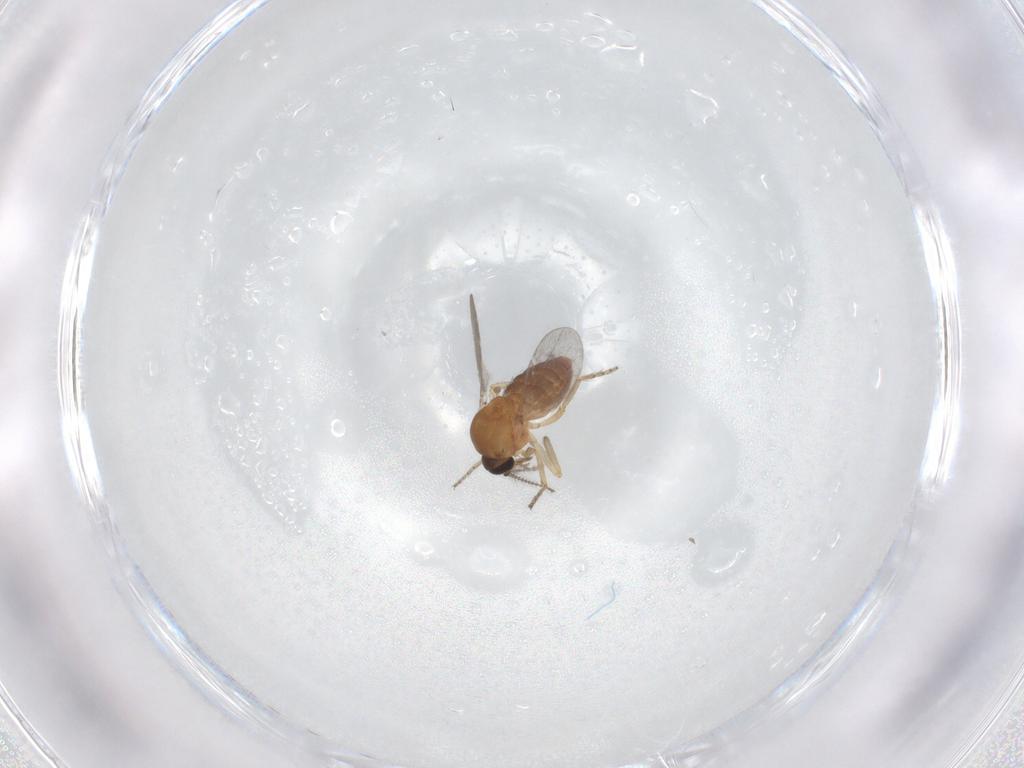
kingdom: Animalia
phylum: Arthropoda
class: Insecta
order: Diptera
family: Ceratopogonidae
